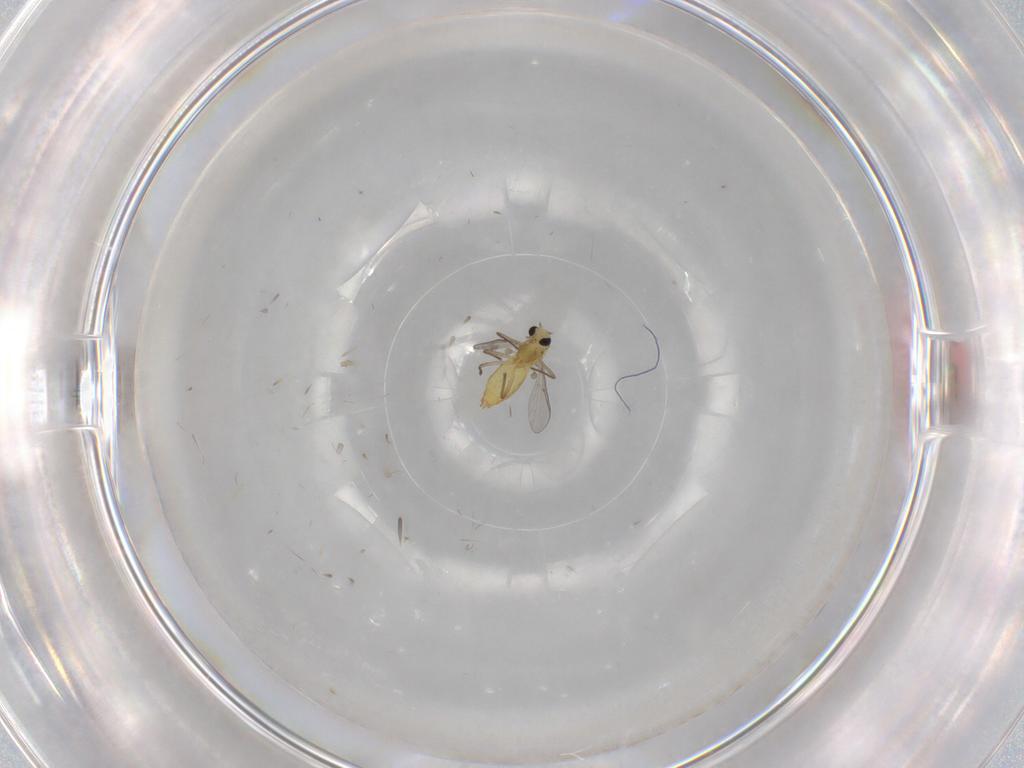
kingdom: Animalia
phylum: Arthropoda
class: Insecta
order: Diptera
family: Chironomidae
